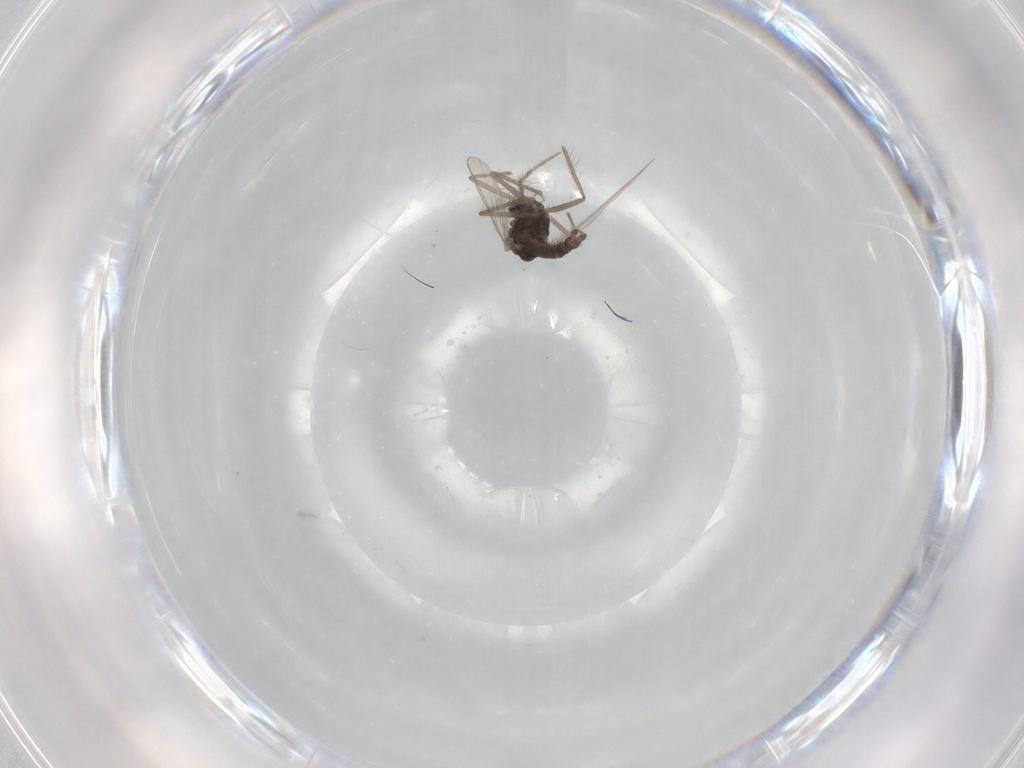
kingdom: Animalia
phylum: Arthropoda
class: Insecta
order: Diptera
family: Chironomidae
